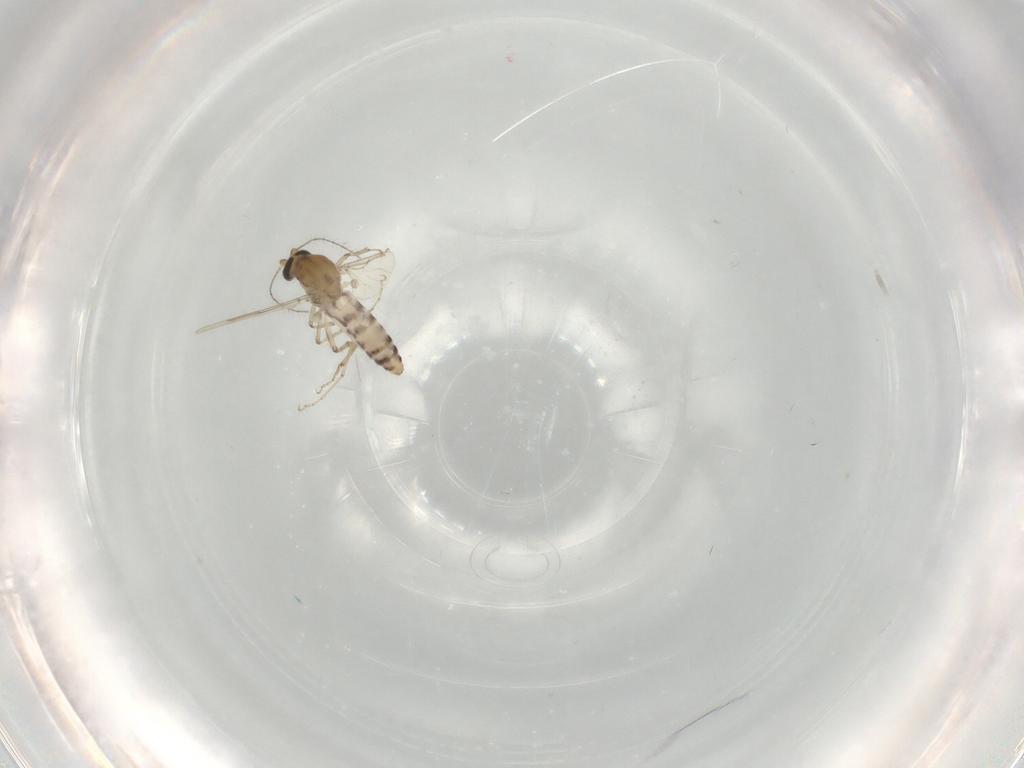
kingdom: Animalia
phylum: Arthropoda
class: Insecta
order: Diptera
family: Ceratopogonidae
